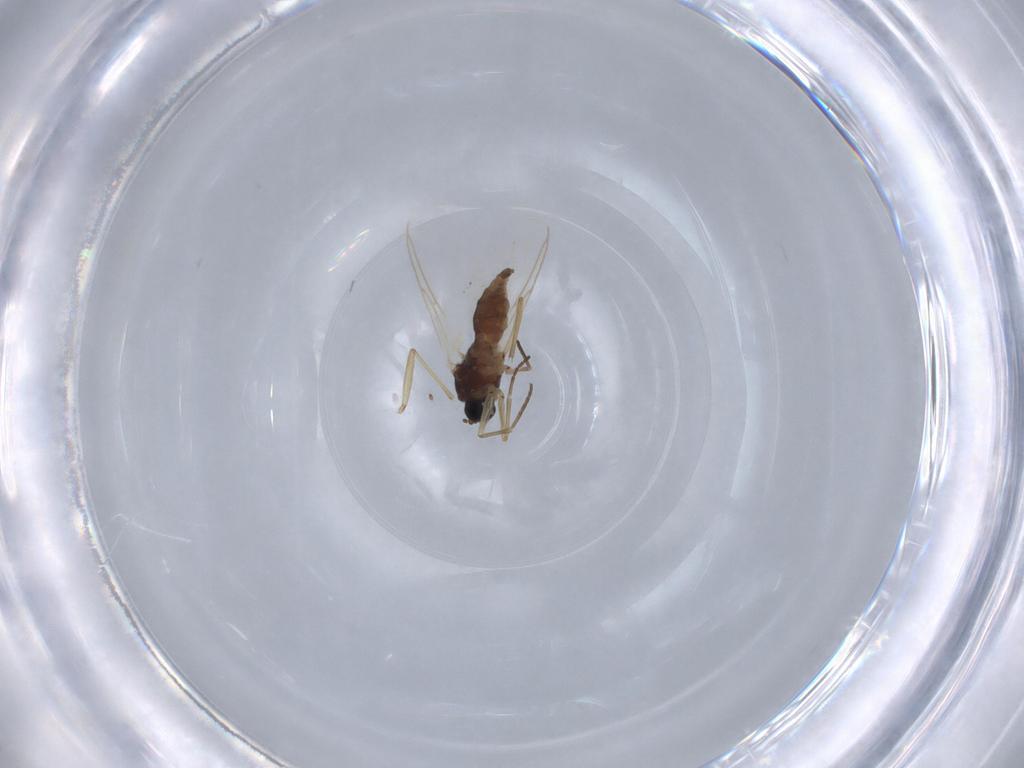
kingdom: Animalia
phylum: Arthropoda
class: Insecta
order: Diptera
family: Sciaridae
